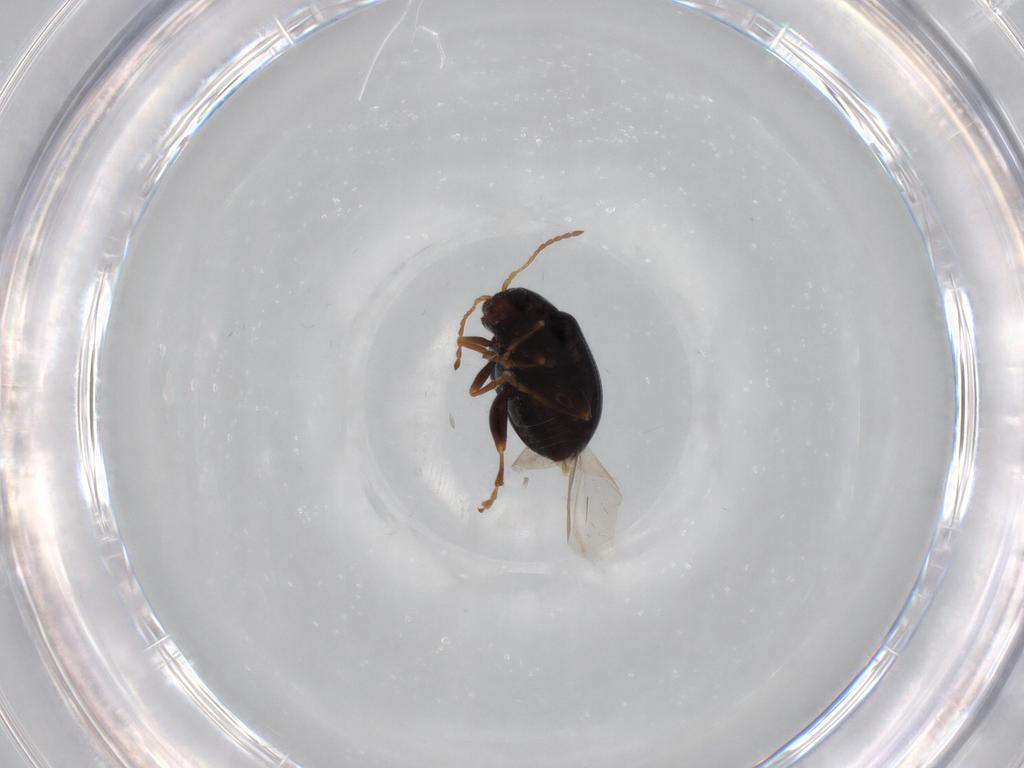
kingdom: Animalia
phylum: Arthropoda
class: Insecta
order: Coleoptera
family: Chrysomelidae
